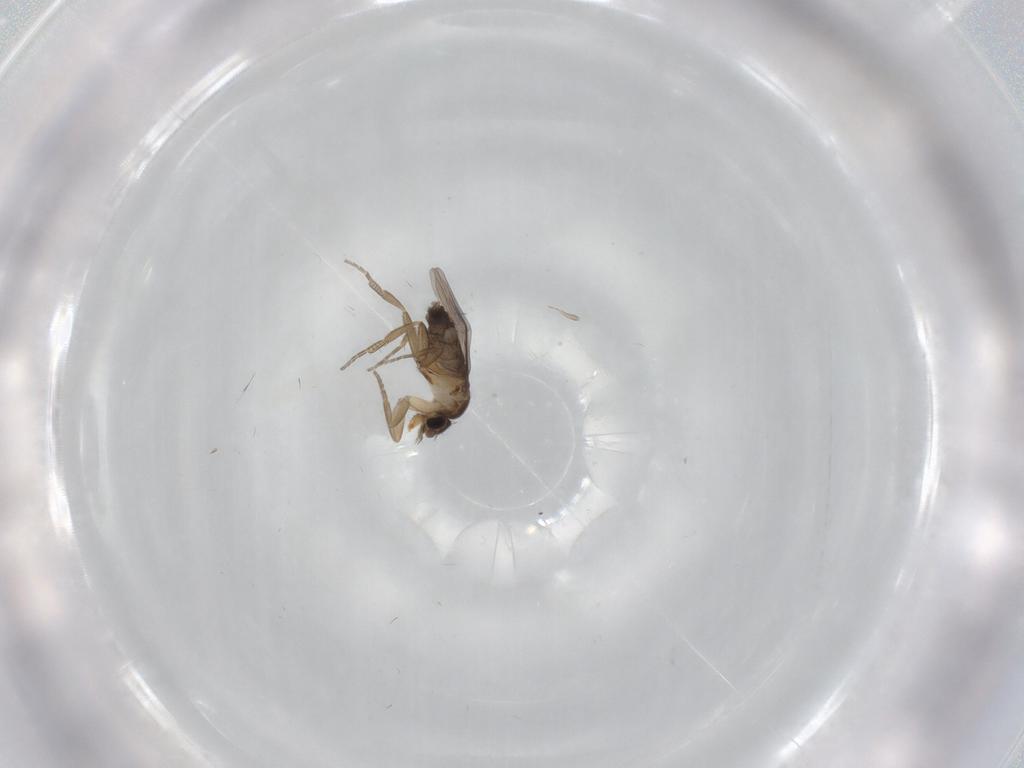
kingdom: Animalia
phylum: Arthropoda
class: Insecta
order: Diptera
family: Phoridae
